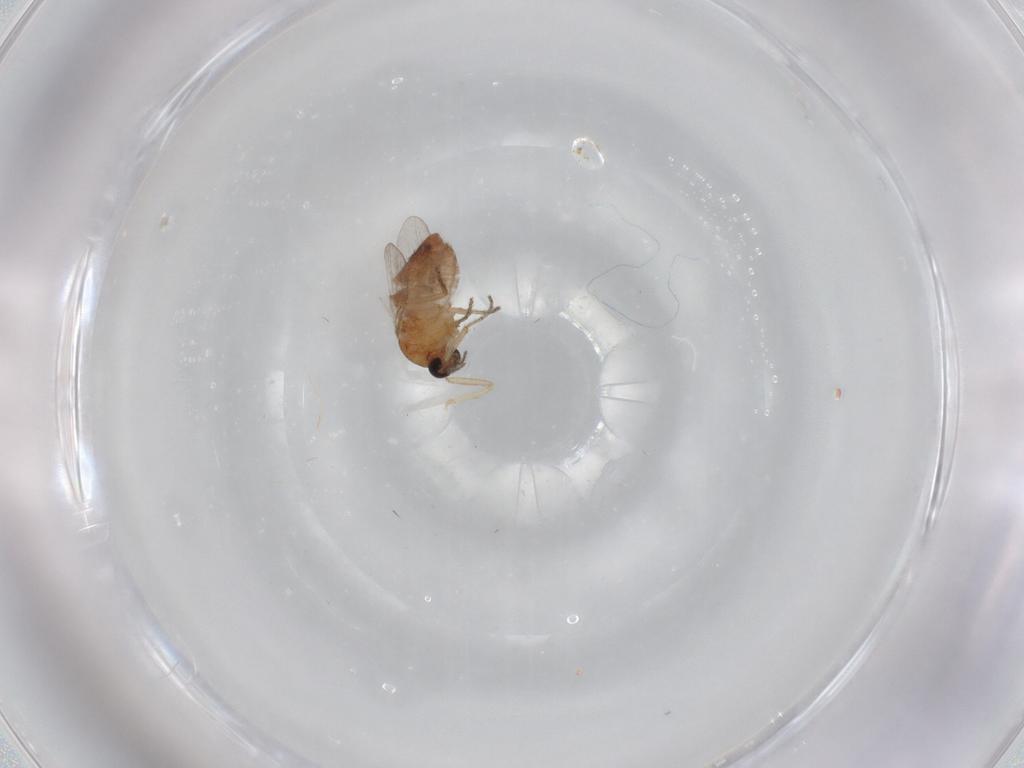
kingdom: Animalia
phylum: Arthropoda
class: Insecta
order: Diptera
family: Ceratopogonidae
